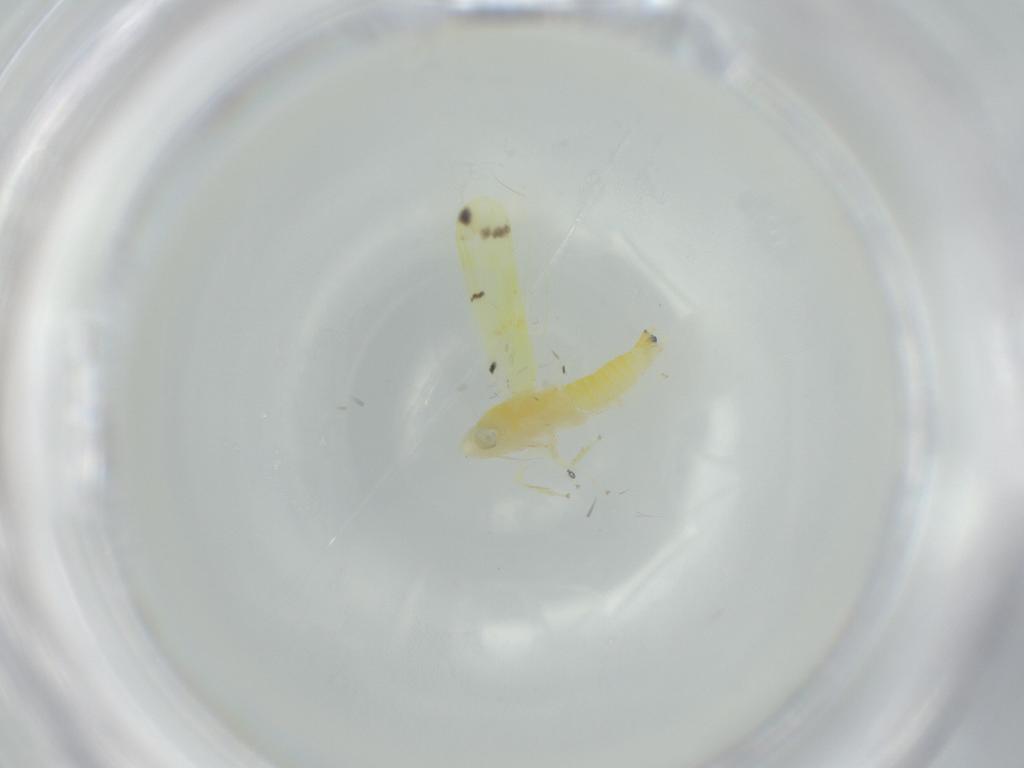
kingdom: Animalia
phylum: Arthropoda
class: Insecta
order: Hemiptera
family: Cicadellidae
